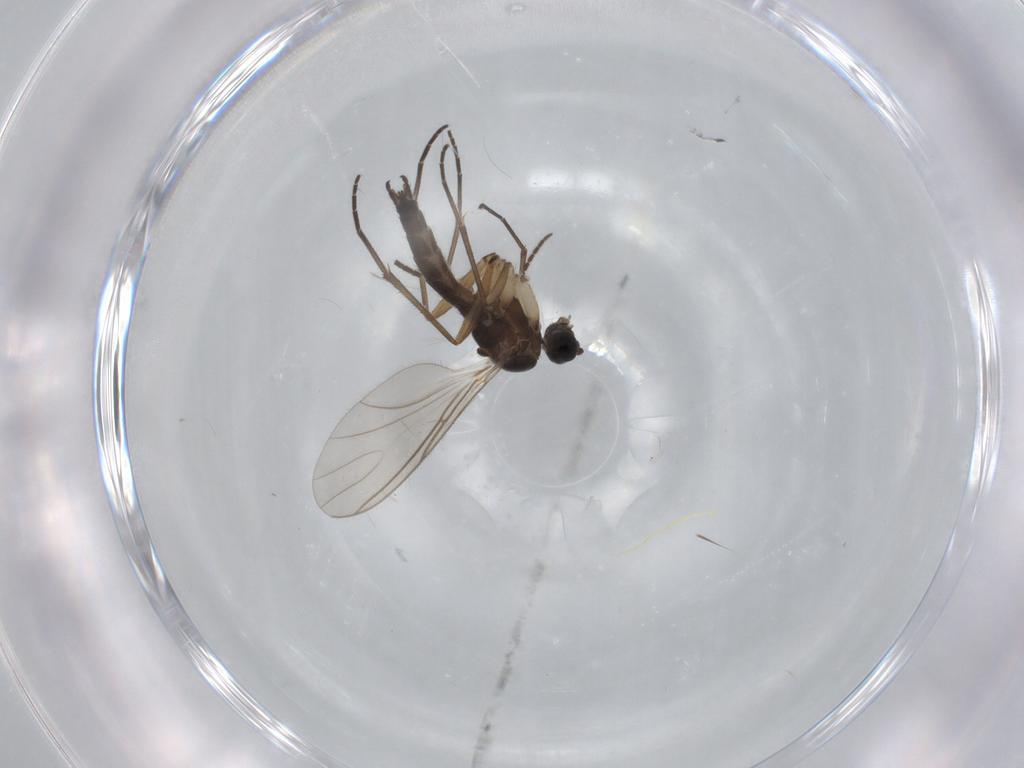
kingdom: Animalia
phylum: Arthropoda
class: Insecta
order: Diptera
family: Sciaridae
